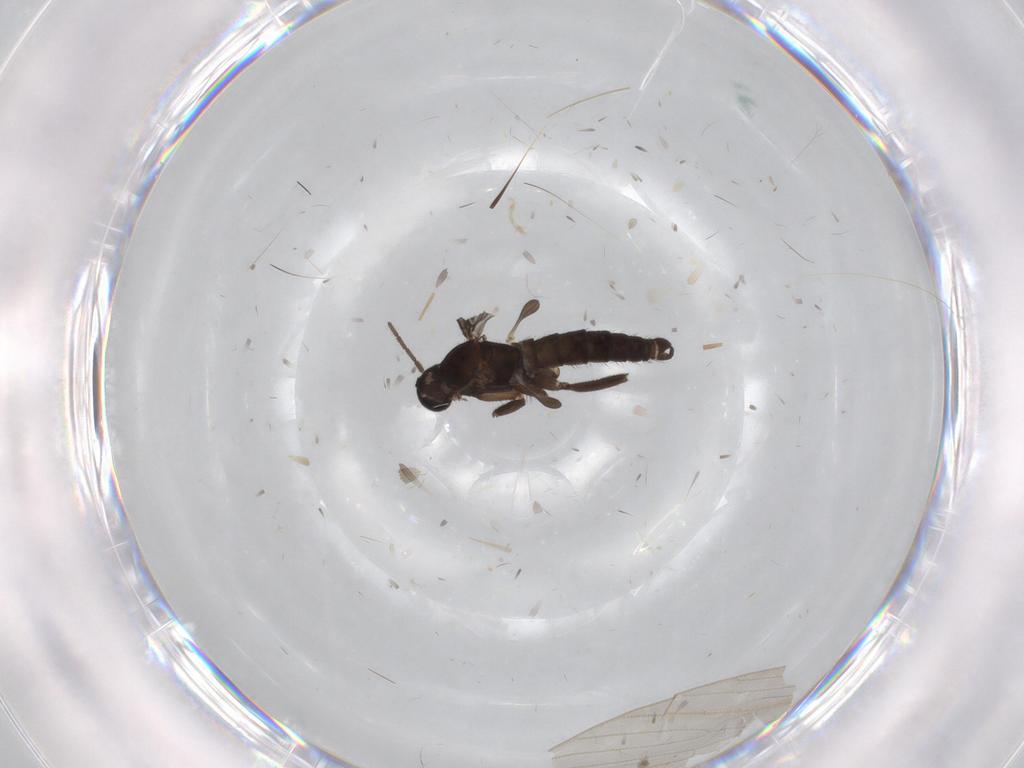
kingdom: Animalia
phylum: Arthropoda
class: Insecta
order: Diptera
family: Sciaridae
